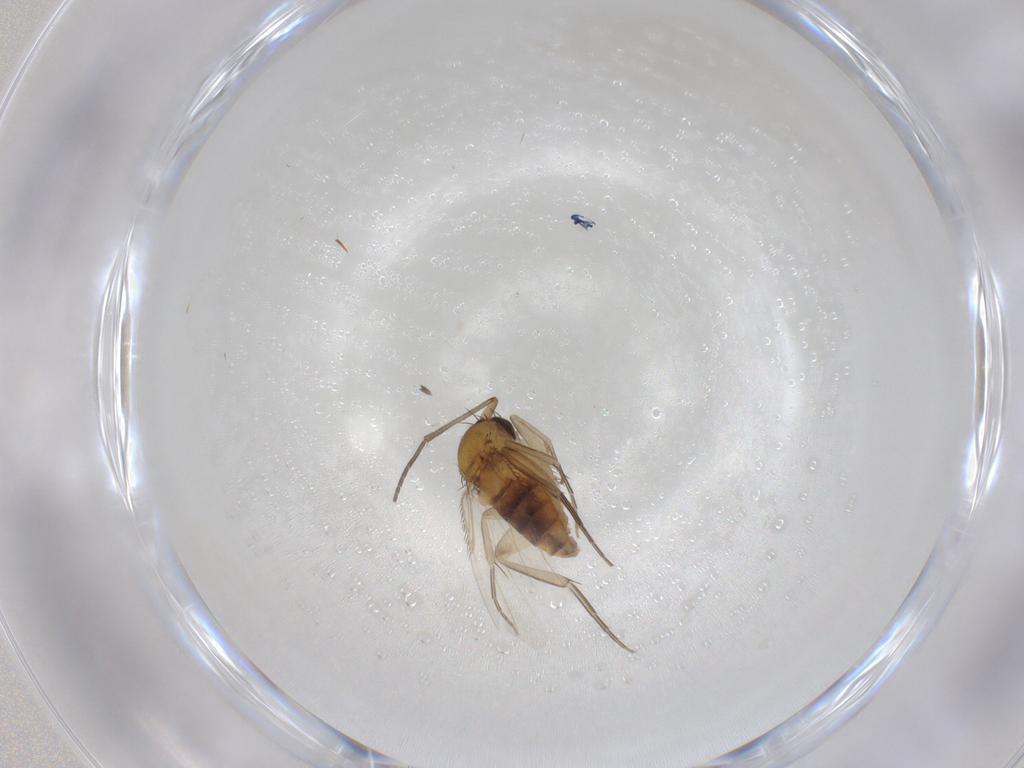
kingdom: Animalia
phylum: Arthropoda
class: Insecta
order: Diptera
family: Phoridae
